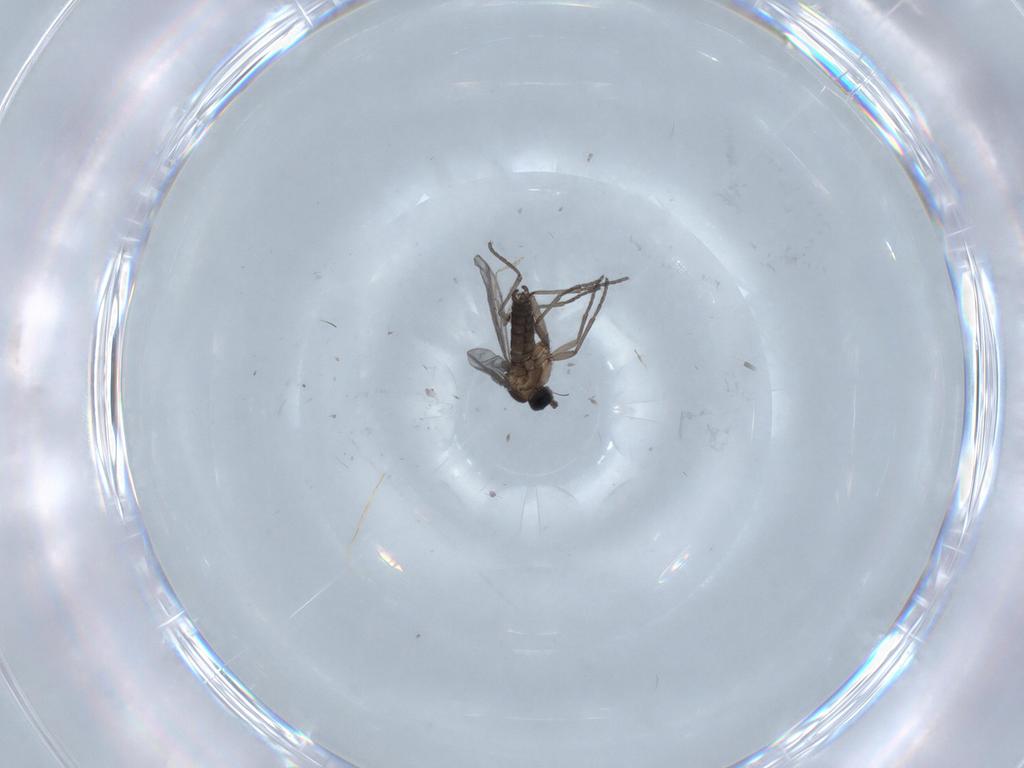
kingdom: Animalia
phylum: Arthropoda
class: Insecta
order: Diptera
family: Chironomidae
